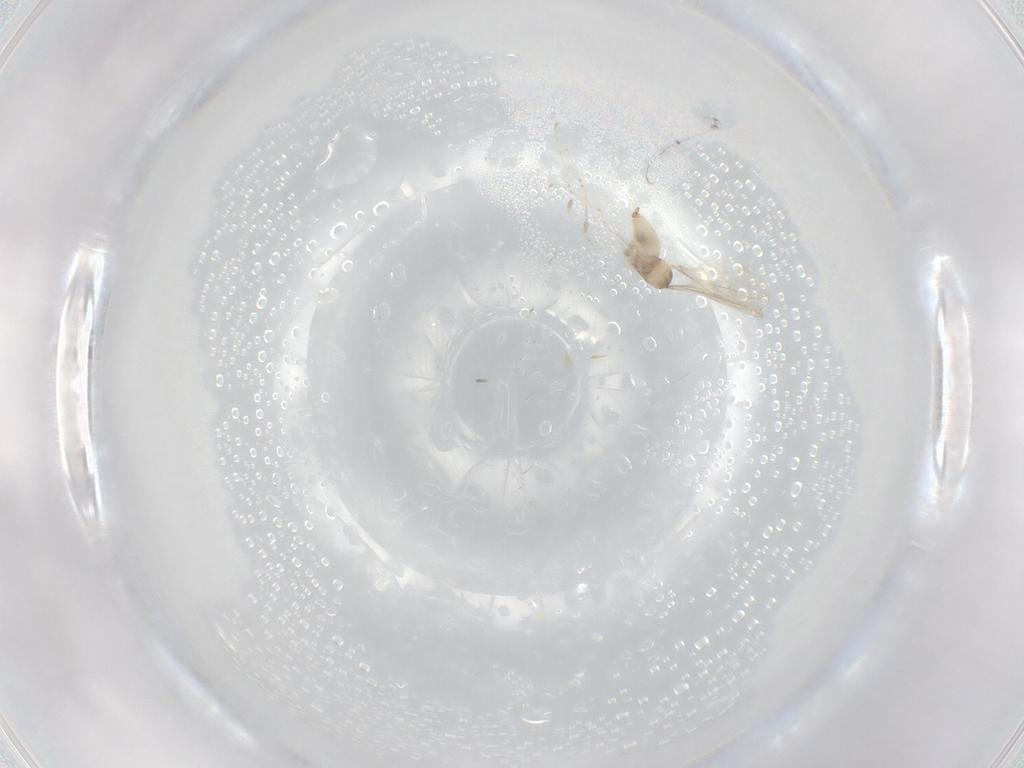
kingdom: Animalia
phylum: Arthropoda
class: Insecta
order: Diptera
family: Cecidomyiidae
